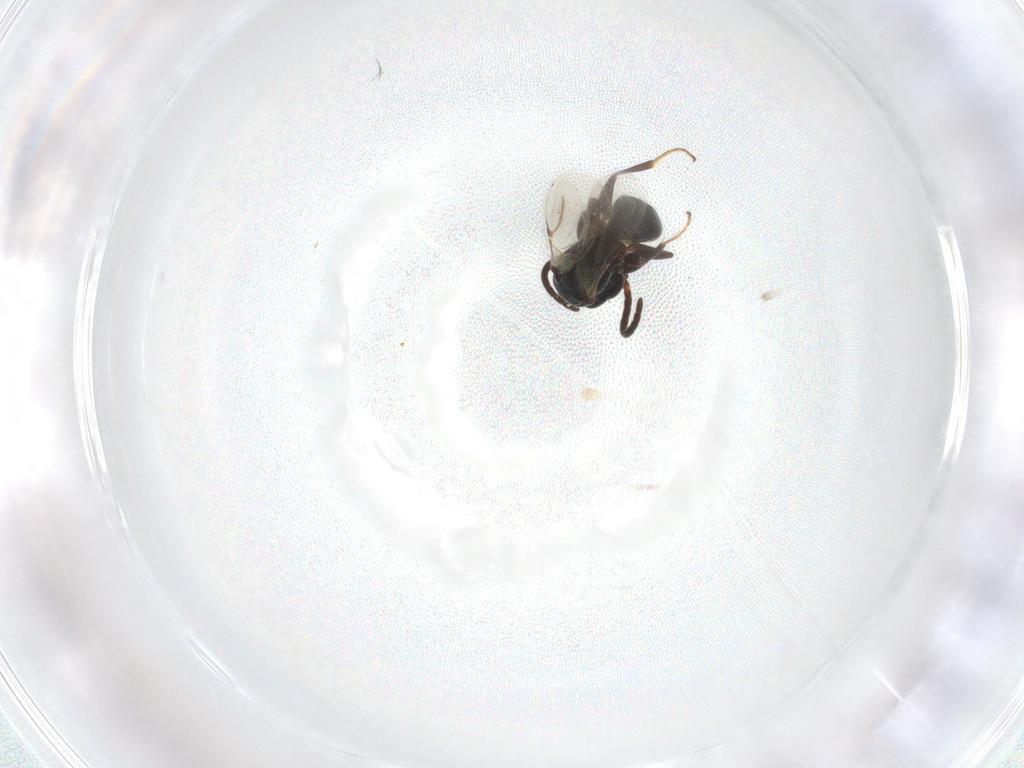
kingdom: Animalia
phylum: Arthropoda
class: Insecta
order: Hymenoptera
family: Bethylidae
